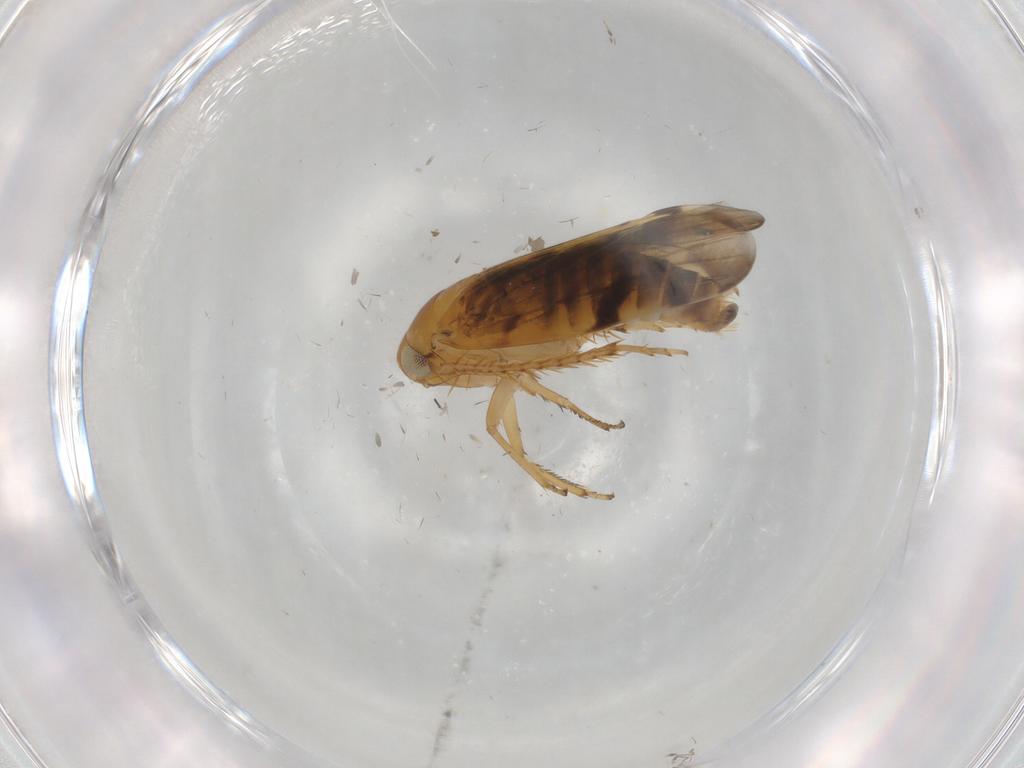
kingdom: Animalia
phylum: Arthropoda
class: Insecta
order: Hemiptera
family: Cicadellidae
